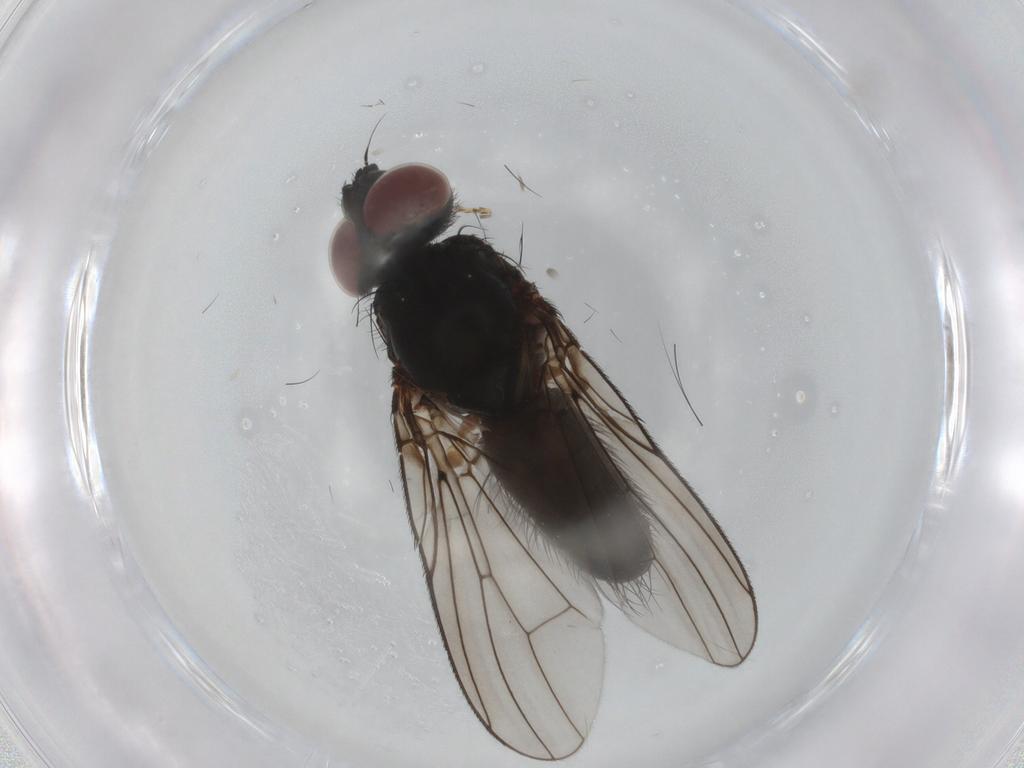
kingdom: Animalia
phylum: Arthropoda
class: Insecta
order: Diptera
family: Anthomyiidae
